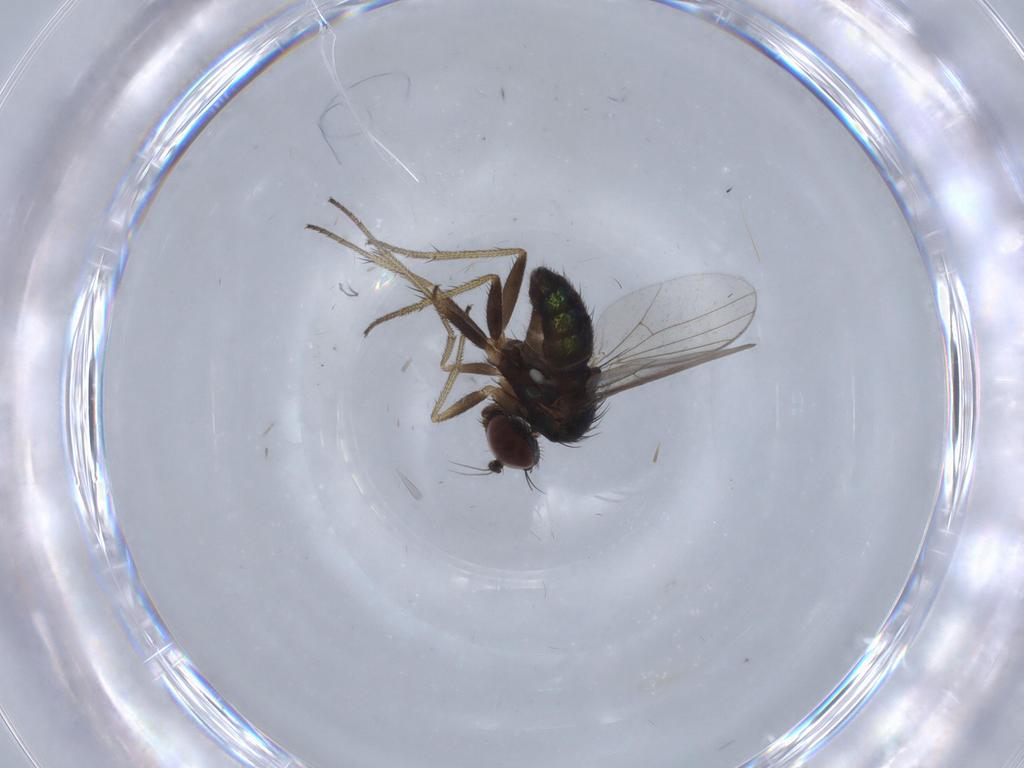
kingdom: Animalia
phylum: Arthropoda
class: Insecta
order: Diptera
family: Dolichopodidae
